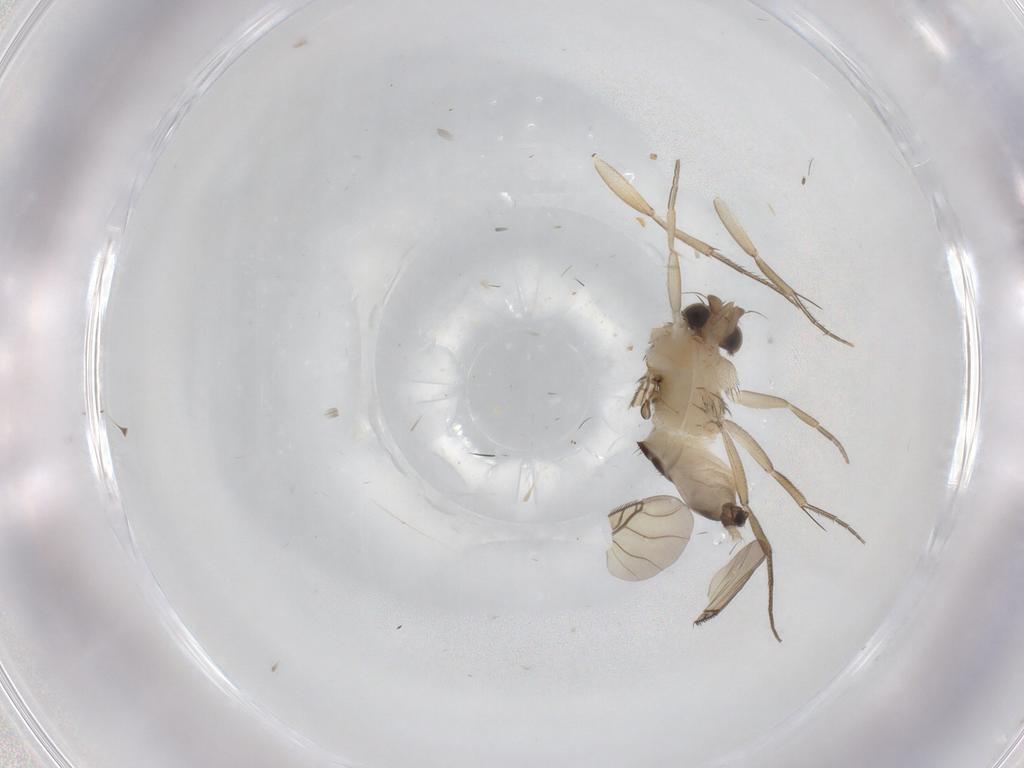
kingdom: Animalia
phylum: Arthropoda
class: Insecta
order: Diptera
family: Phoridae
